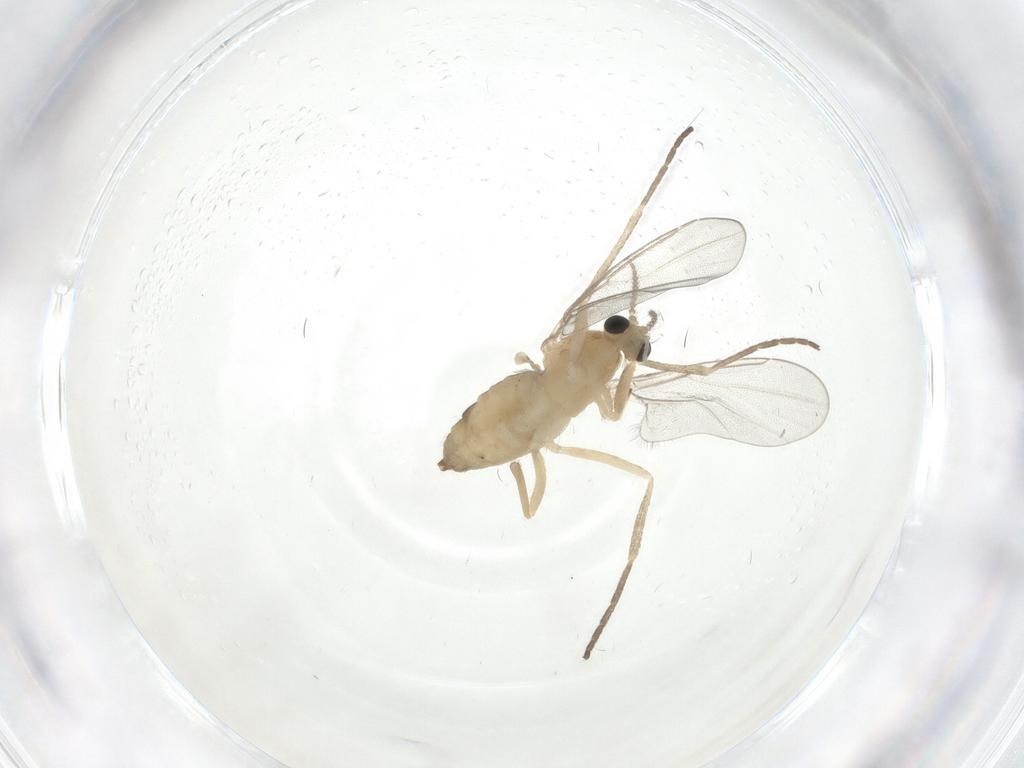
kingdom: Animalia
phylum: Arthropoda
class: Insecta
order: Diptera
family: Cecidomyiidae
